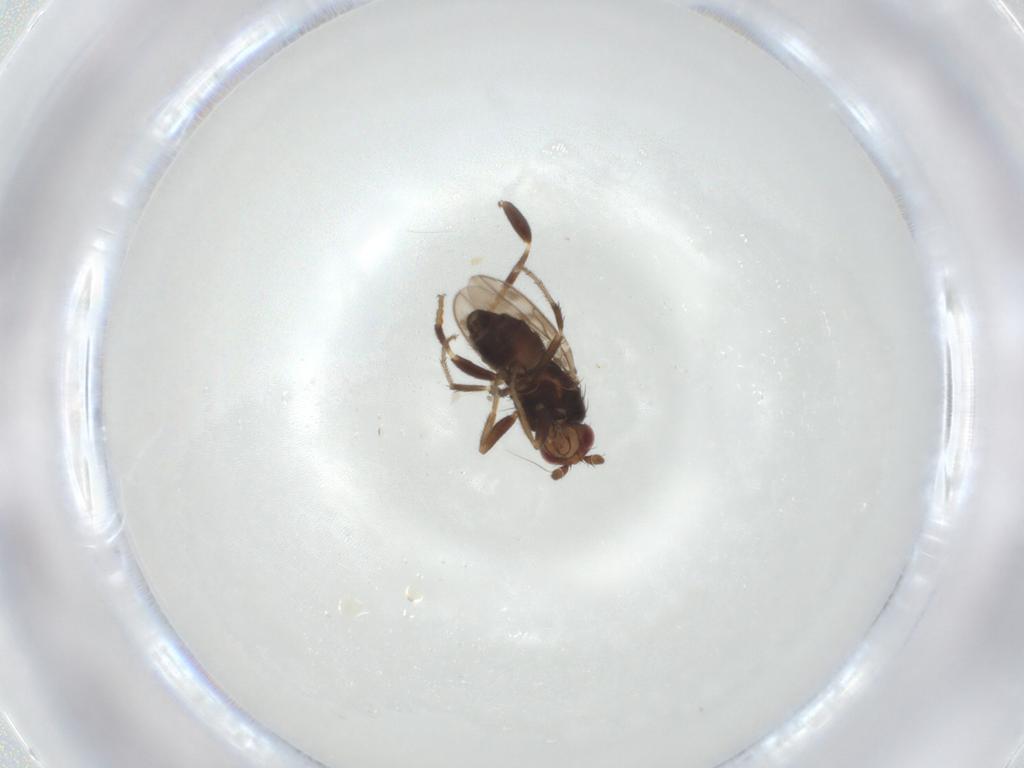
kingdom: Animalia
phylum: Arthropoda
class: Insecta
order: Diptera
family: Sphaeroceridae
